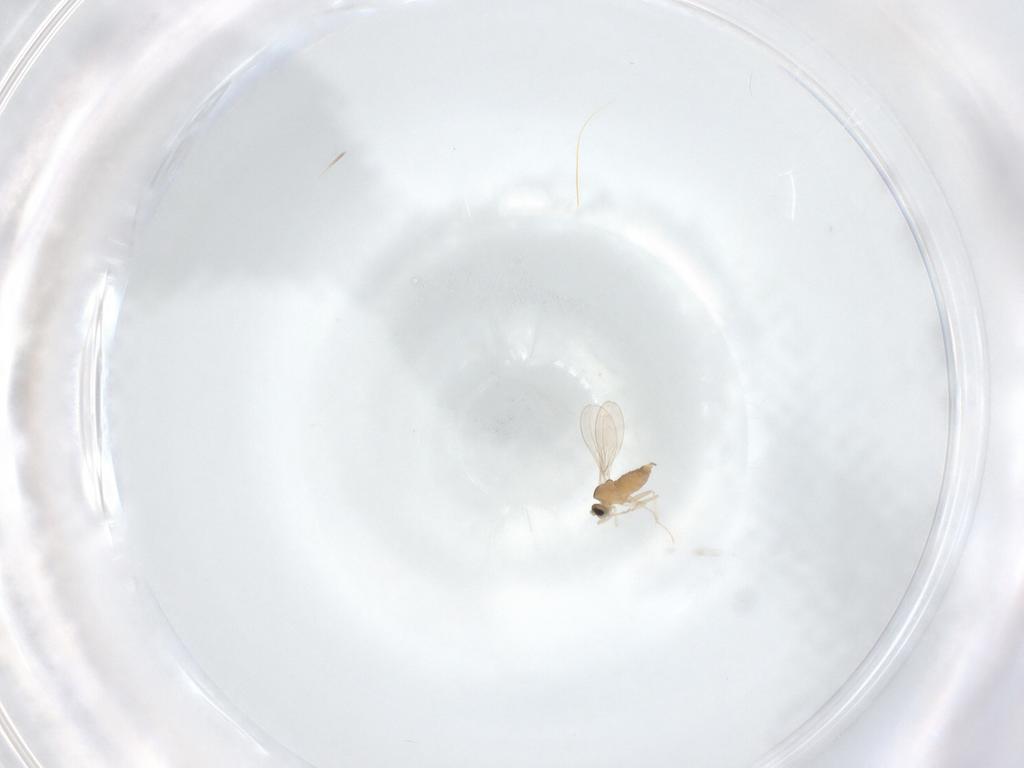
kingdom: Animalia
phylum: Arthropoda
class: Insecta
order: Diptera
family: Cecidomyiidae
